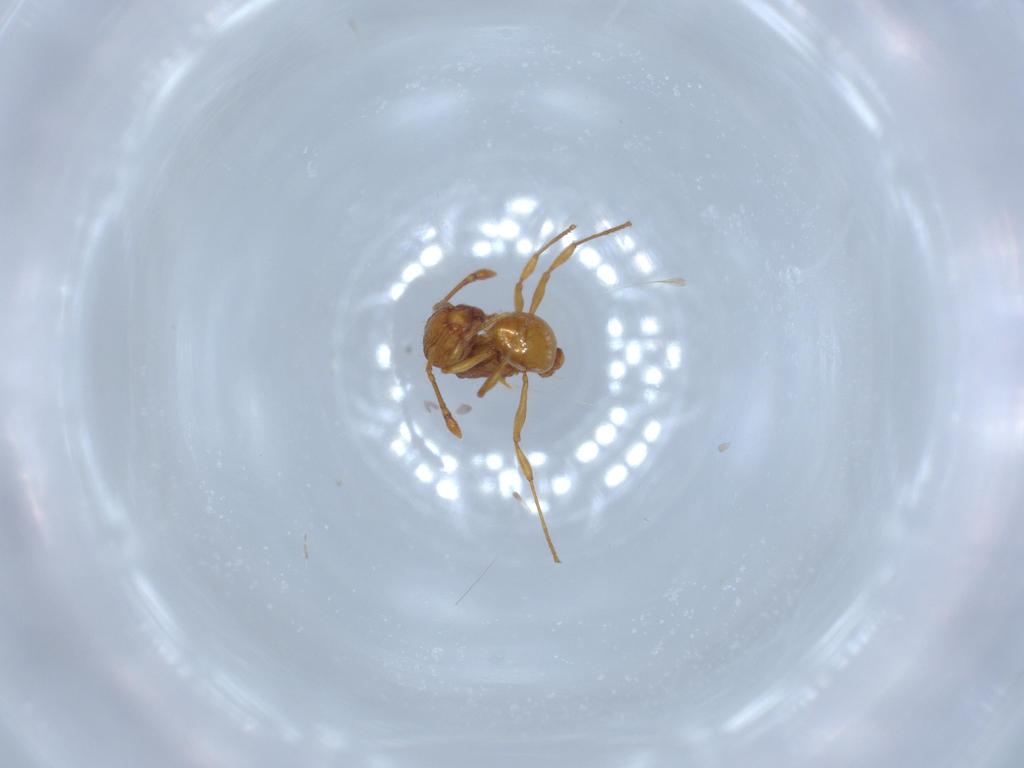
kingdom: Animalia
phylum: Arthropoda
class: Insecta
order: Hymenoptera
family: Formicidae
